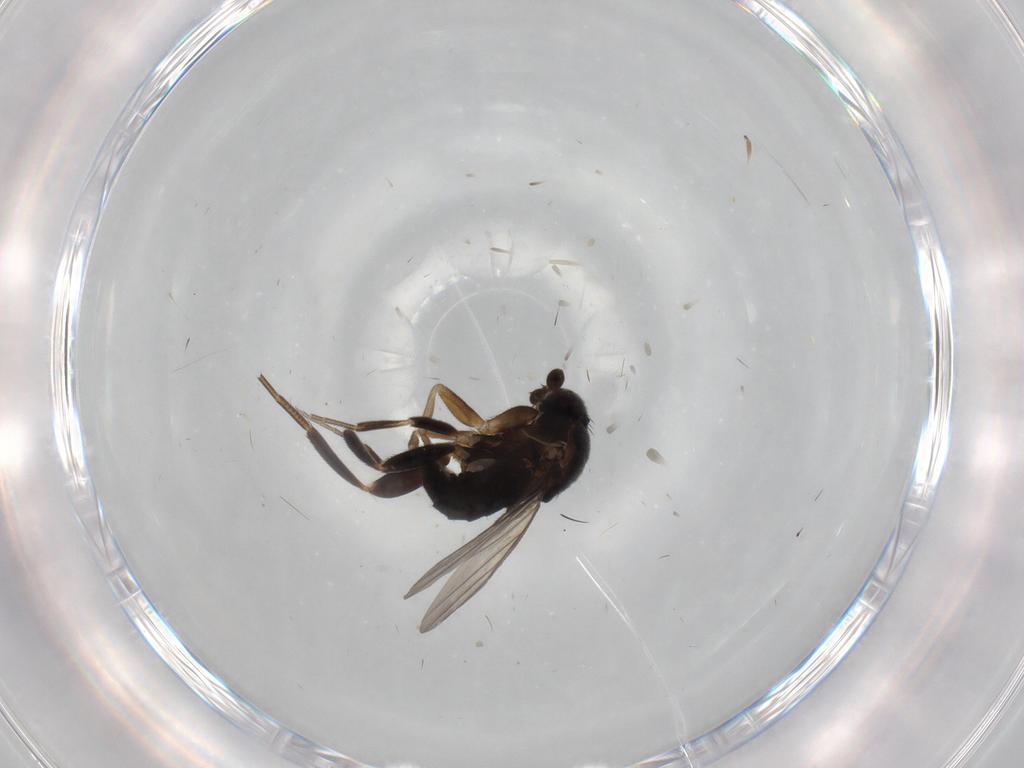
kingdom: Animalia
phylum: Arthropoda
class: Insecta
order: Diptera
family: Phoridae
